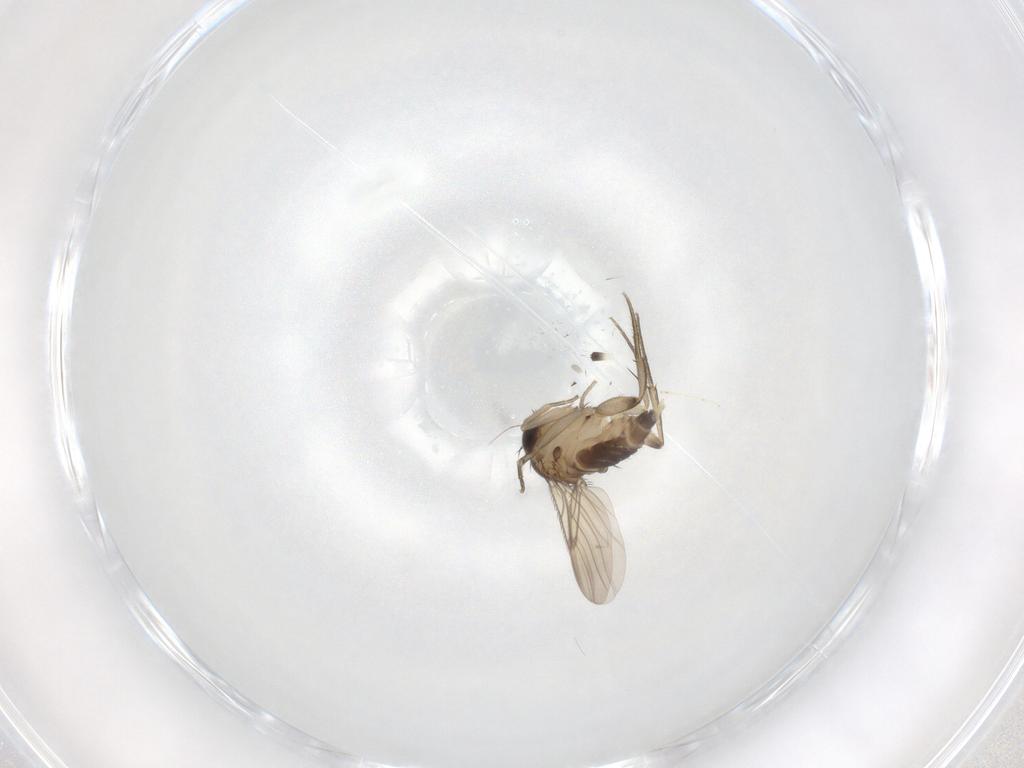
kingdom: Animalia
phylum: Arthropoda
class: Insecta
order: Diptera
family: Phoridae
